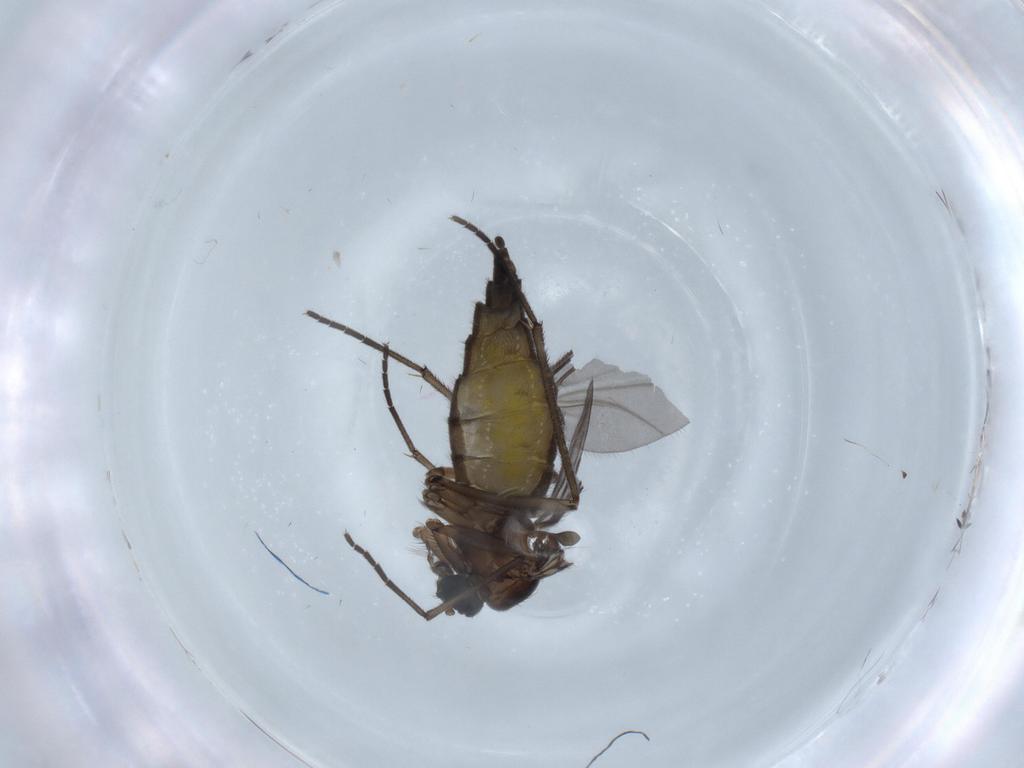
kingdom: Animalia
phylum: Arthropoda
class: Insecta
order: Diptera
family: Sciaridae
